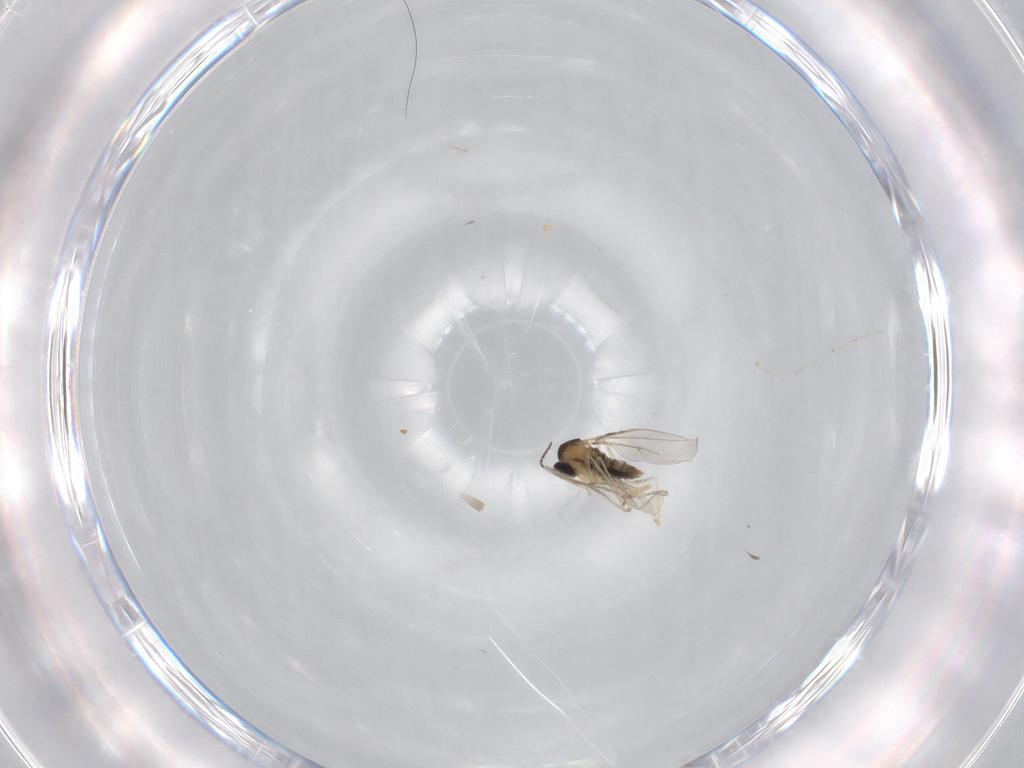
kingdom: Animalia
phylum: Arthropoda
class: Insecta
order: Diptera
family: Cecidomyiidae
